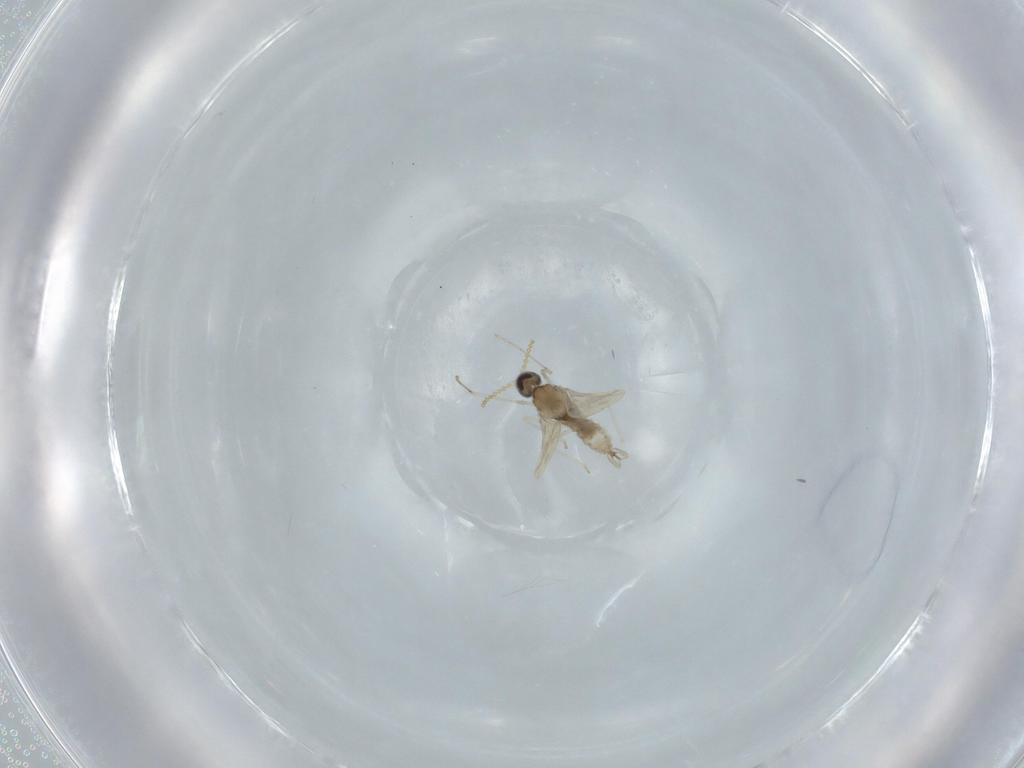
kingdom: Animalia
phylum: Arthropoda
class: Insecta
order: Diptera
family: Cecidomyiidae
